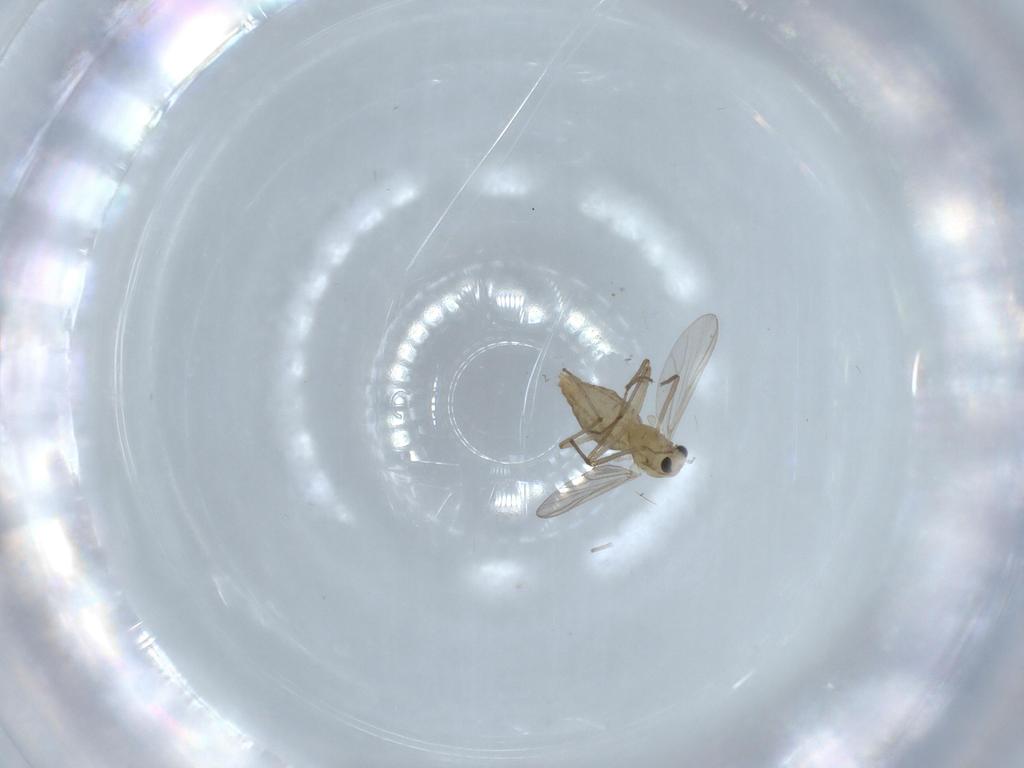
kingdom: Animalia
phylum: Arthropoda
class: Insecta
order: Diptera
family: Chironomidae
